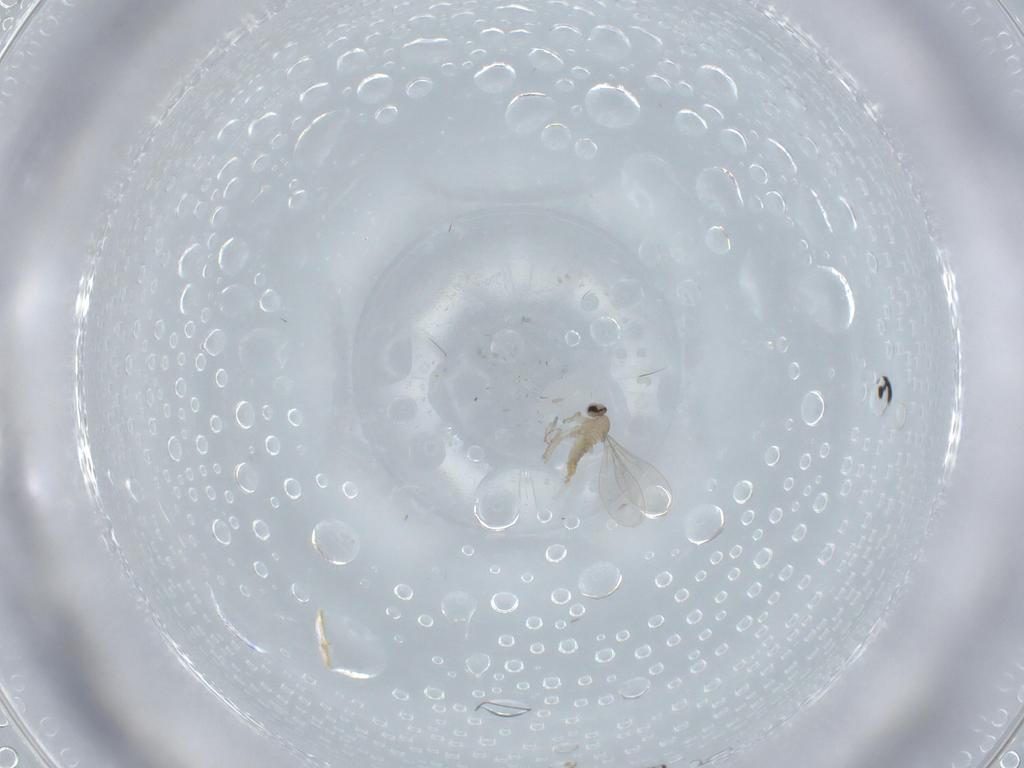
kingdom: Animalia
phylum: Arthropoda
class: Insecta
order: Diptera
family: Cecidomyiidae
